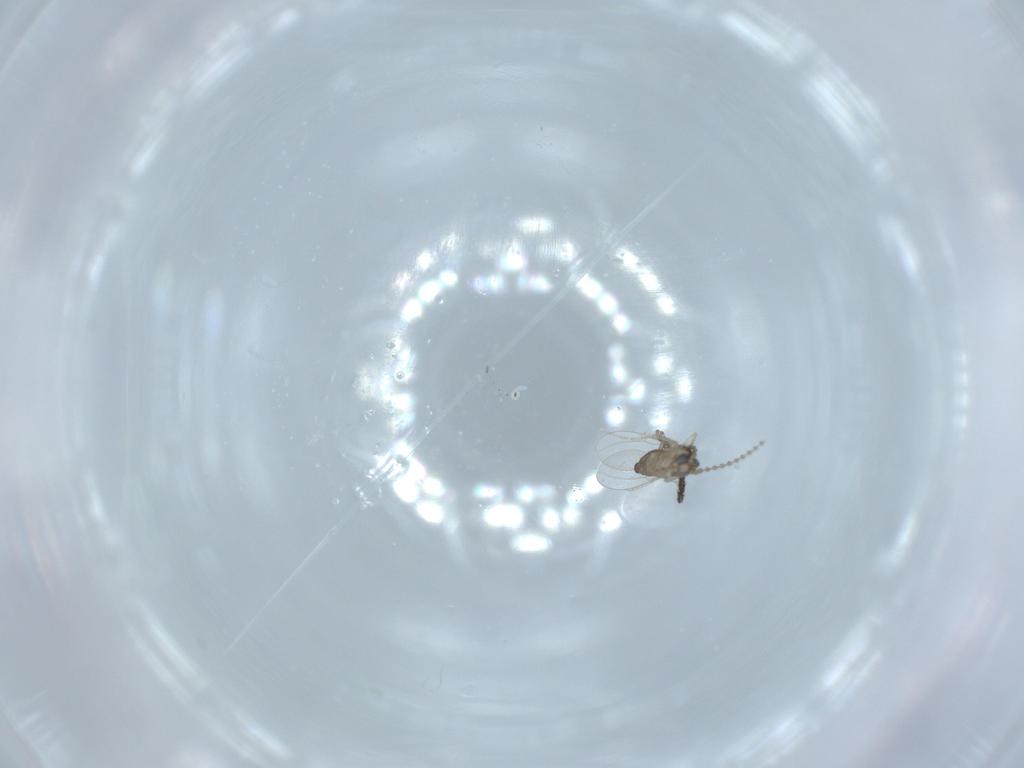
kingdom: Animalia
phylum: Arthropoda
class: Insecta
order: Diptera
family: Cecidomyiidae
